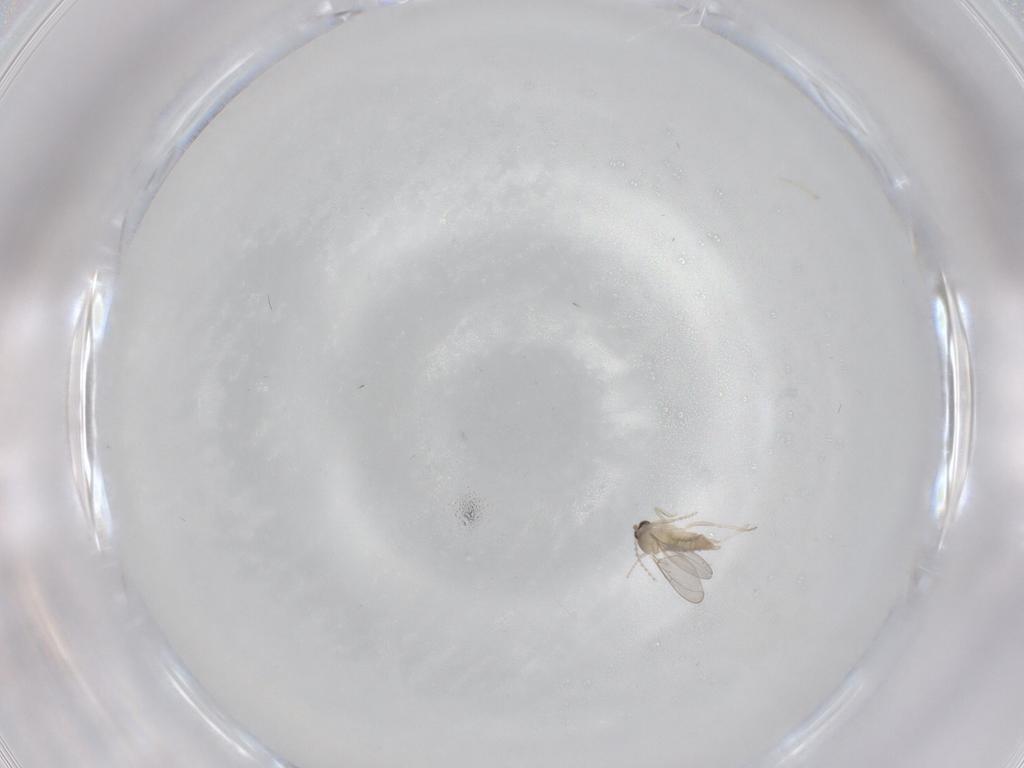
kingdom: Animalia
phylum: Arthropoda
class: Insecta
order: Diptera
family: Cecidomyiidae
